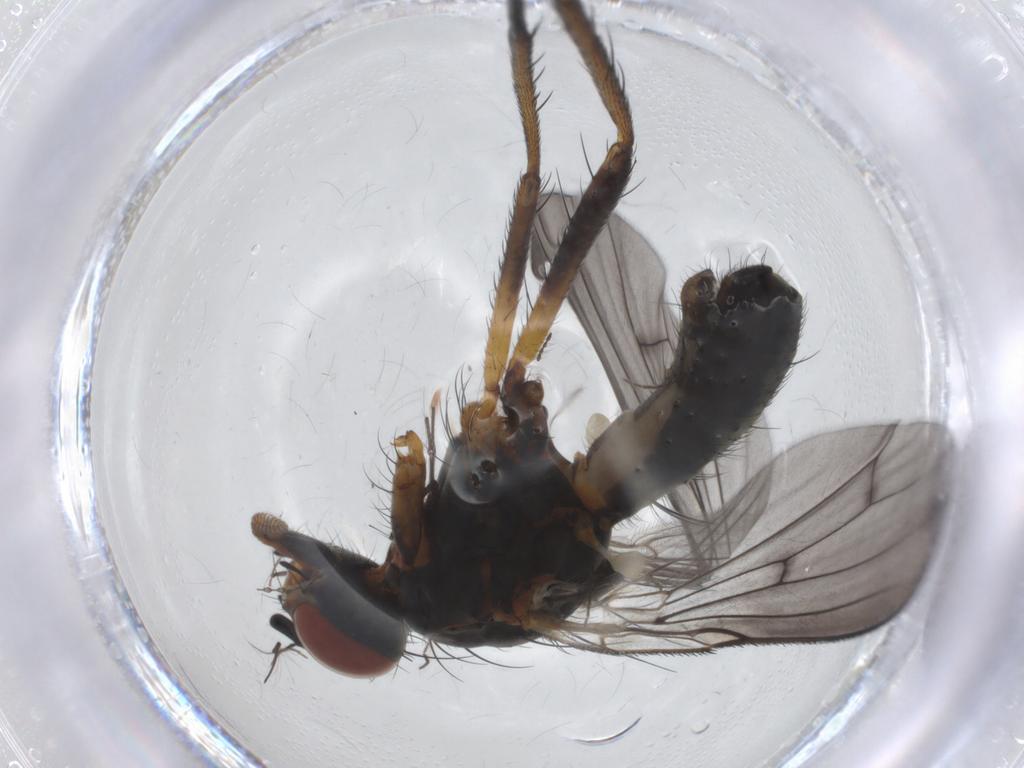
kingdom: Animalia
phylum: Arthropoda
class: Insecta
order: Diptera
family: Anthomyiidae
